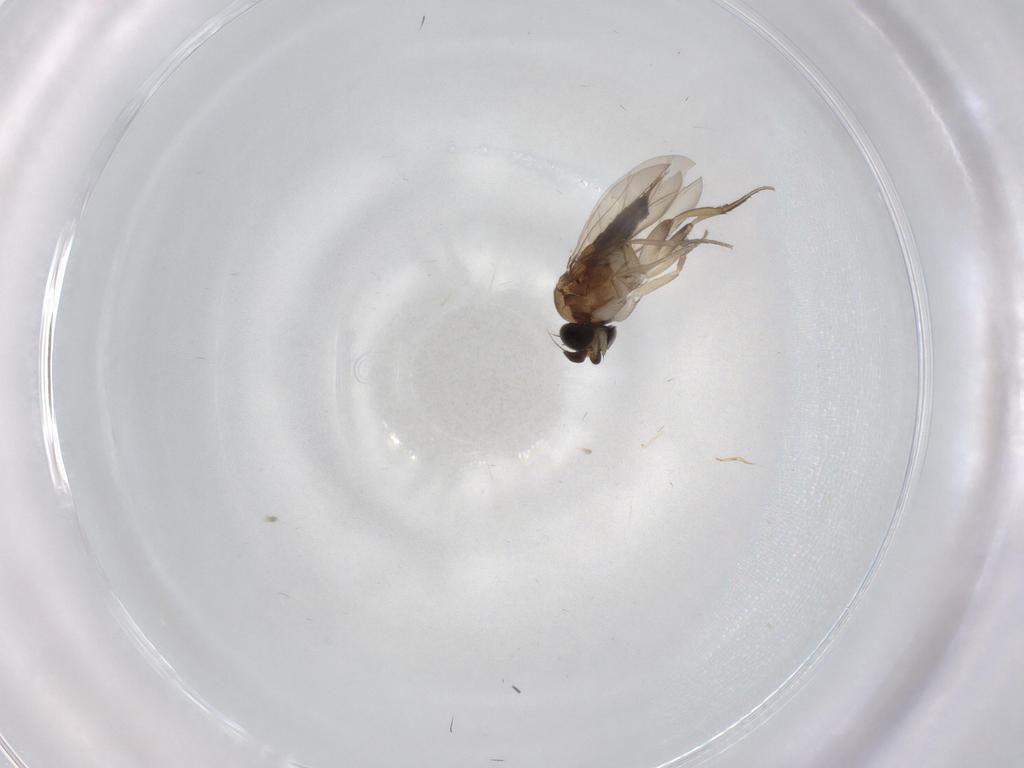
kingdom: Animalia
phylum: Arthropoda
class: Insecta
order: Diptera
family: Phoridae
